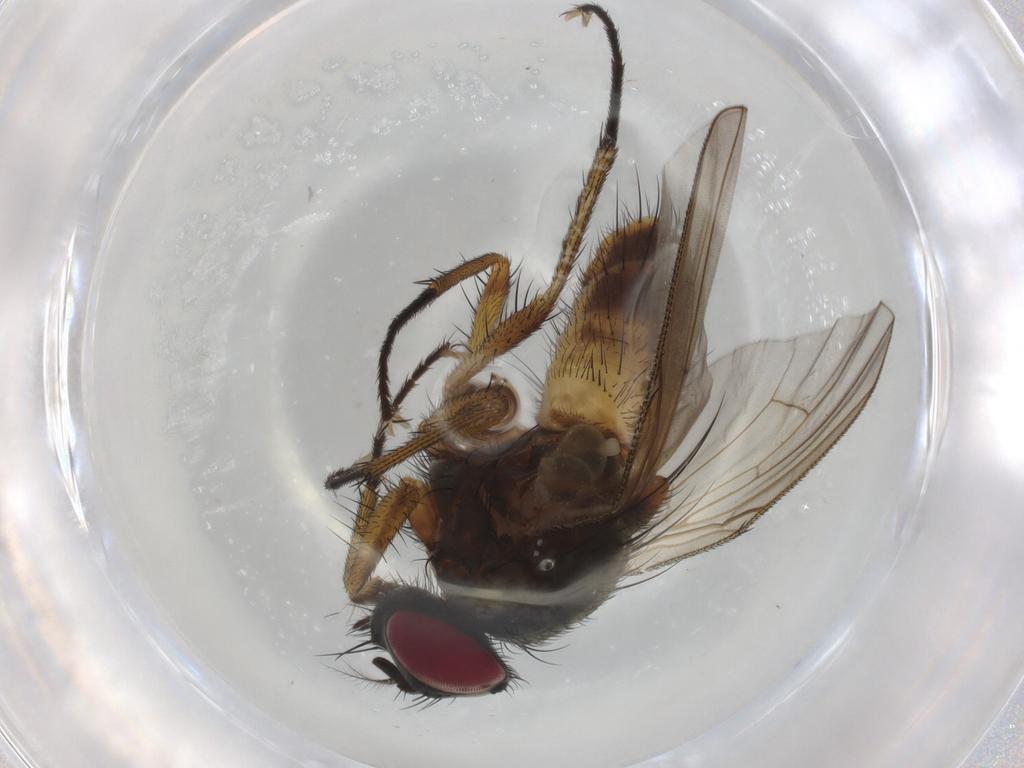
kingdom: Animalia
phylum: Arthropoda
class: Insecta
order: Diptera
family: Muscidae
